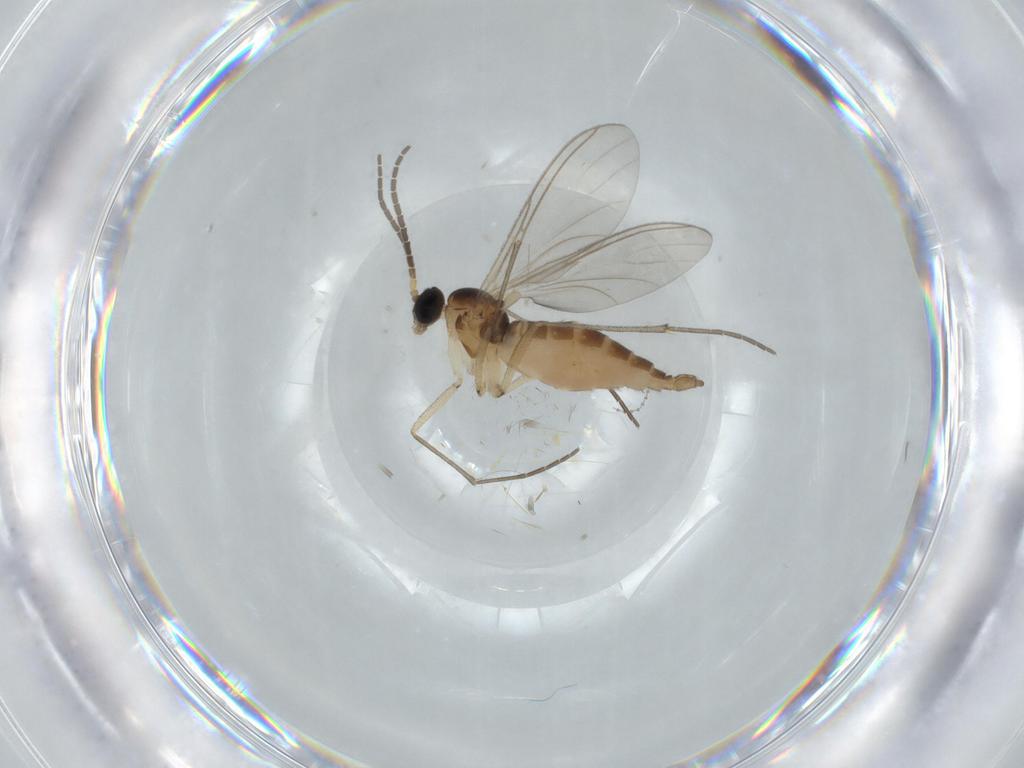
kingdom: Animalia
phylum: Arthropoda
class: Insecta
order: Diptera
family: Sciaridae
